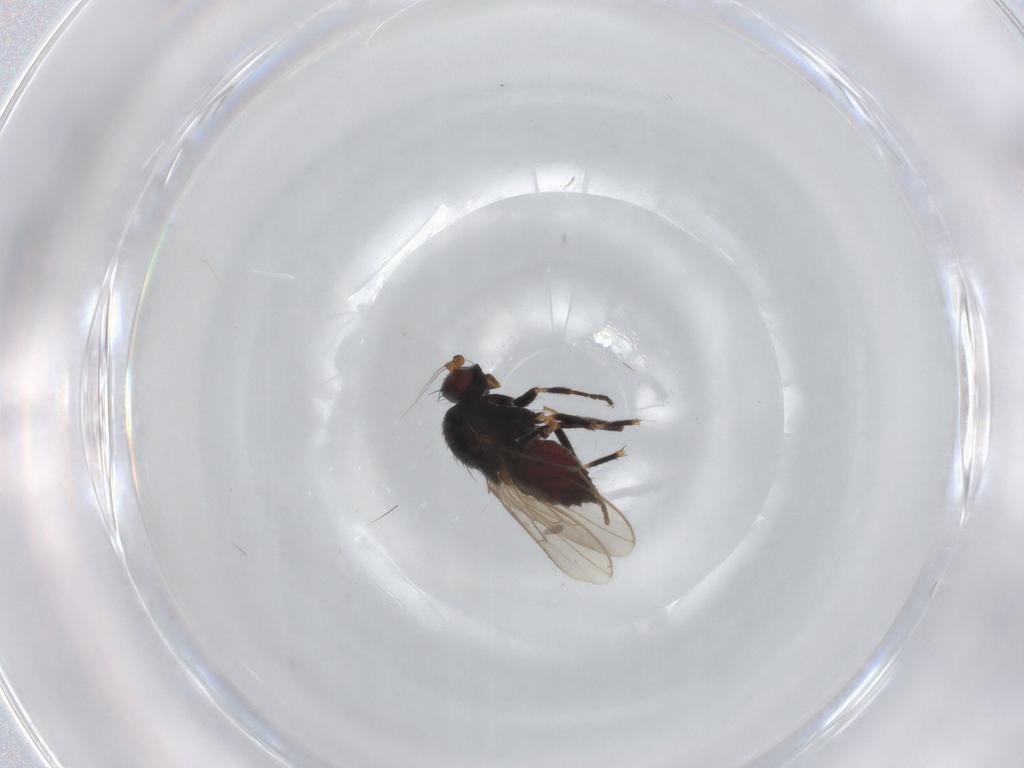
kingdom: Animalia
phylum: Arthropoda
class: Insecta
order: Diptera
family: Sphaeroceridae
